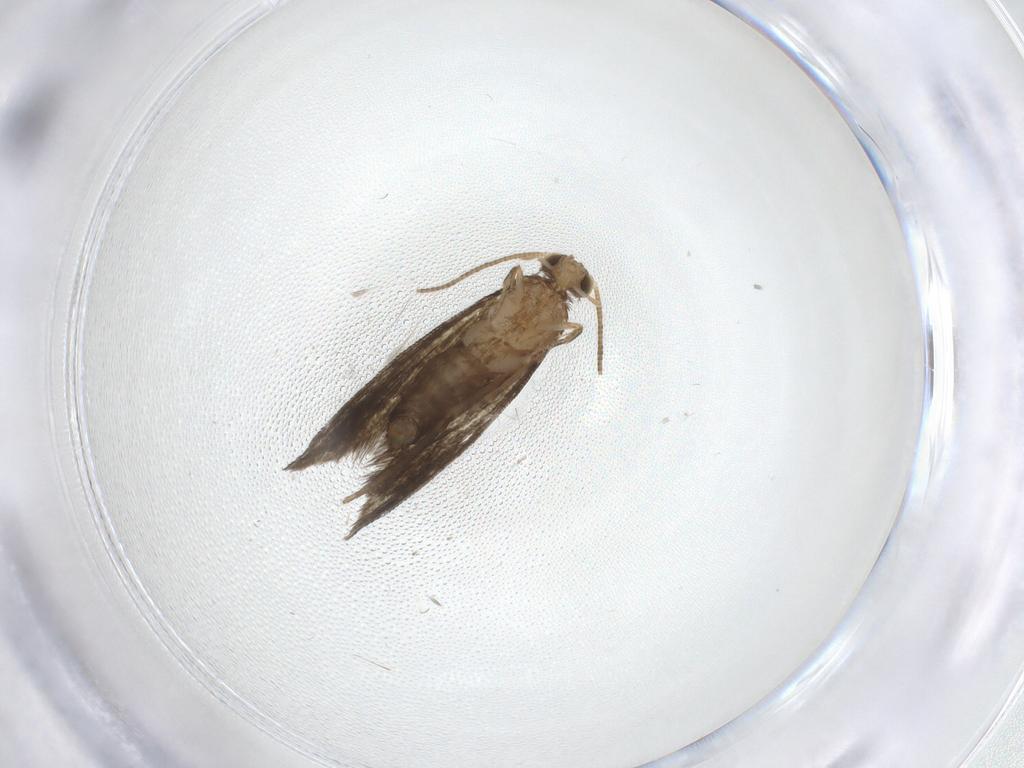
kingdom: Animalia
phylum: Arthropoda
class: Insecta
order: Lepidoptera
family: Tineidae
